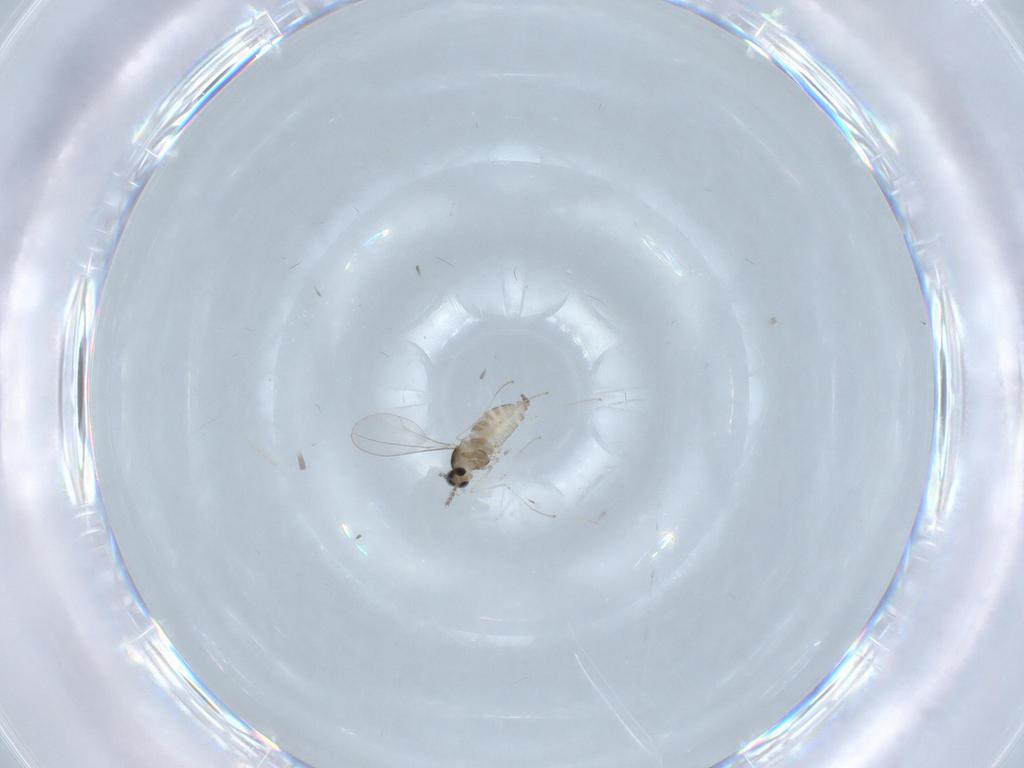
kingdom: Animalia
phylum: Arthropoda
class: Insecta
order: Diptera
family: Cecidomyiidae
